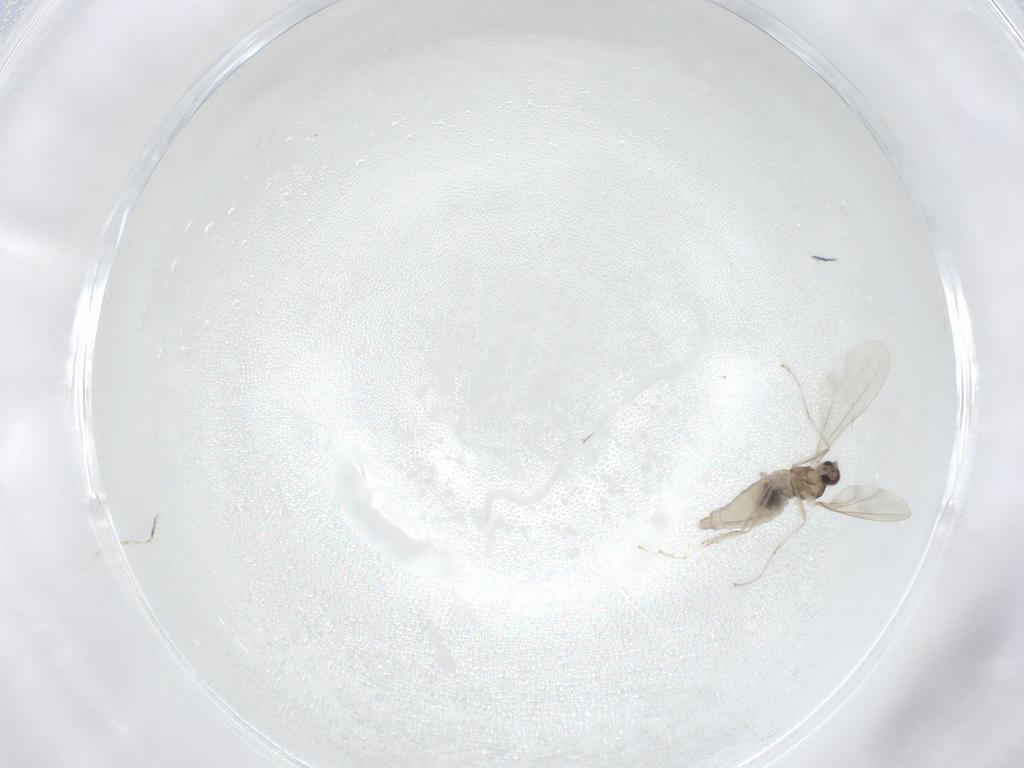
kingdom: Animalia
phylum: Arthropoda
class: Insecta
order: Diptera
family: Cecidomyiidae
